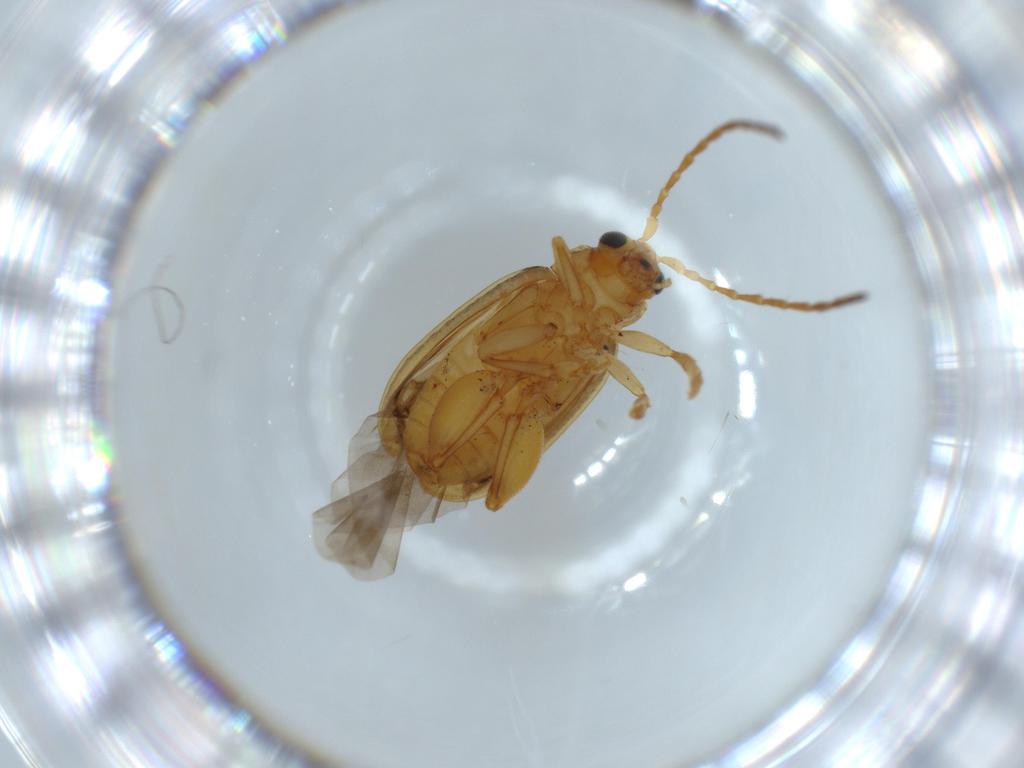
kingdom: Animalia
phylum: Arthropoda
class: Insecta
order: Coleoptera
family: Chrysomelidae
